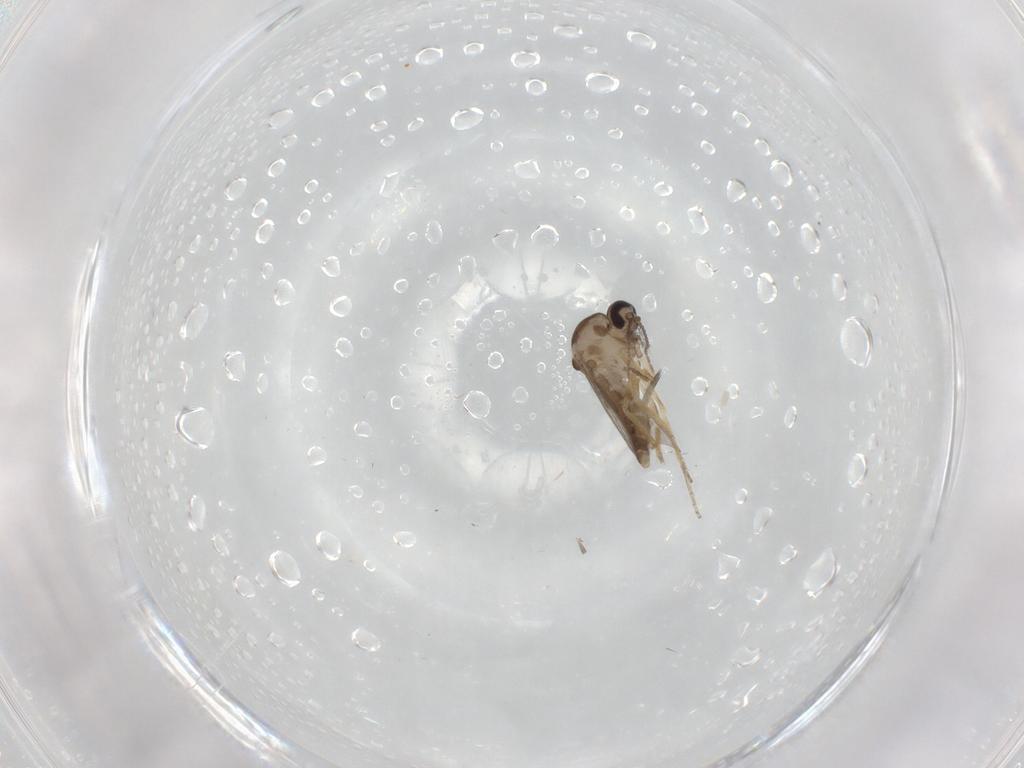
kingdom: Animalia
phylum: Arthropoda
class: Insecta
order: Diptera
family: Ceratopogonidae
